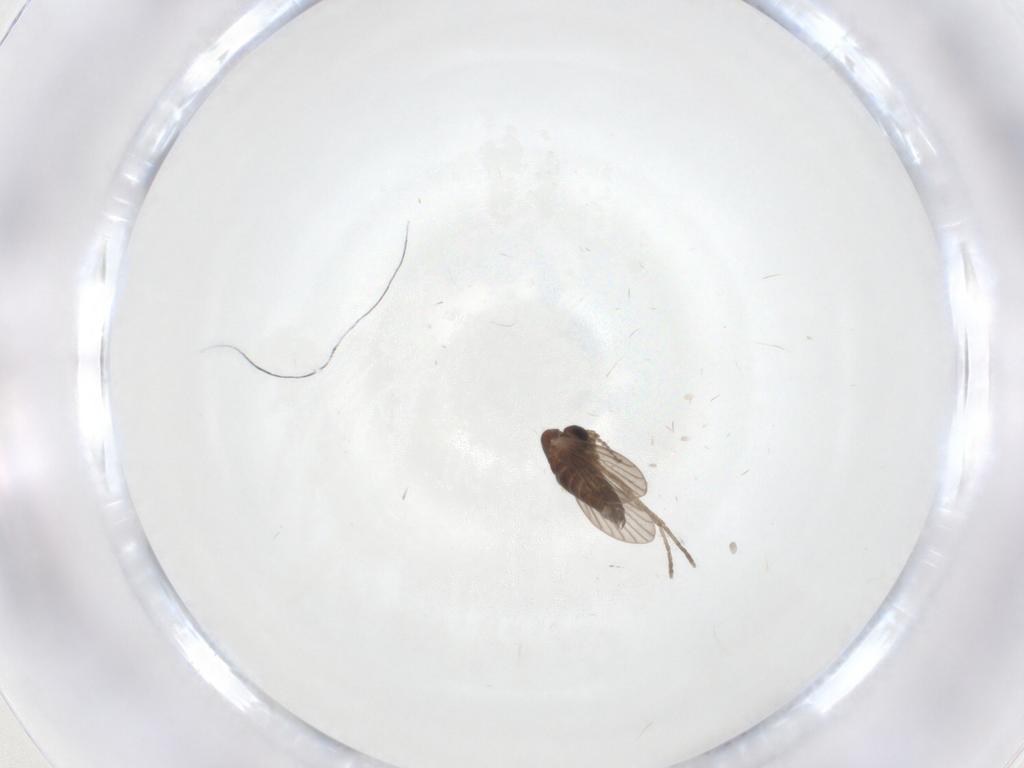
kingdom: Animalia
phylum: Arthropoda
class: Insecta
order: Diptera
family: Psychodidae
